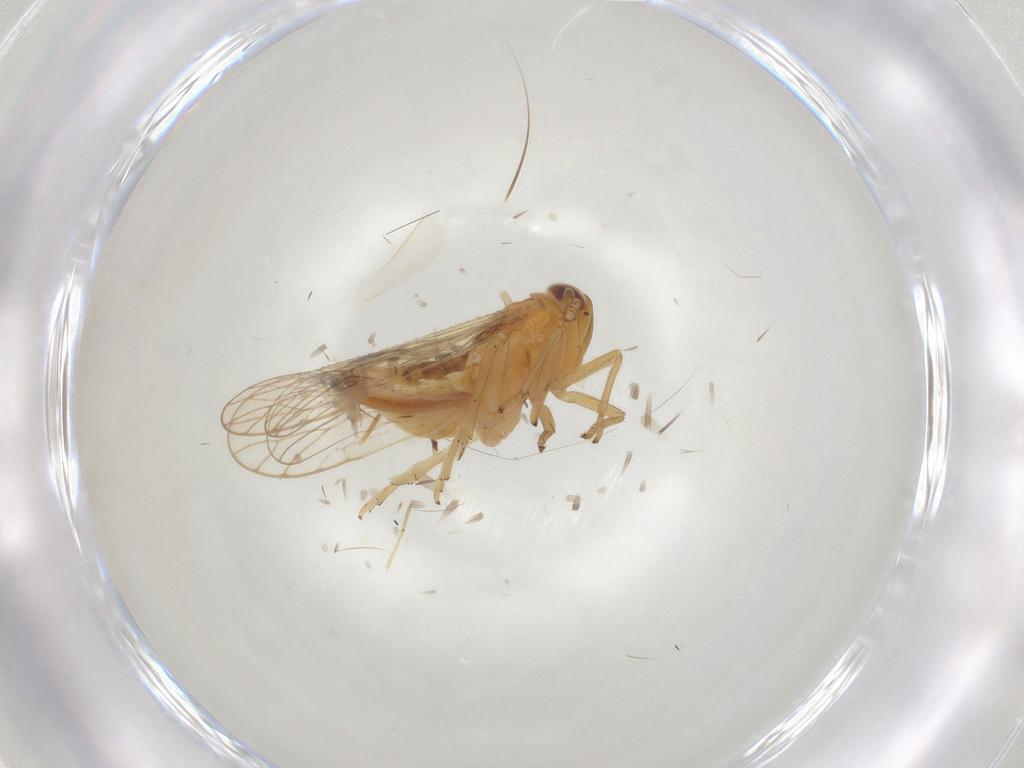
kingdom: Animalia
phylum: Arthropoda
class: Insecta
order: Hemiptera
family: Delphacidae
